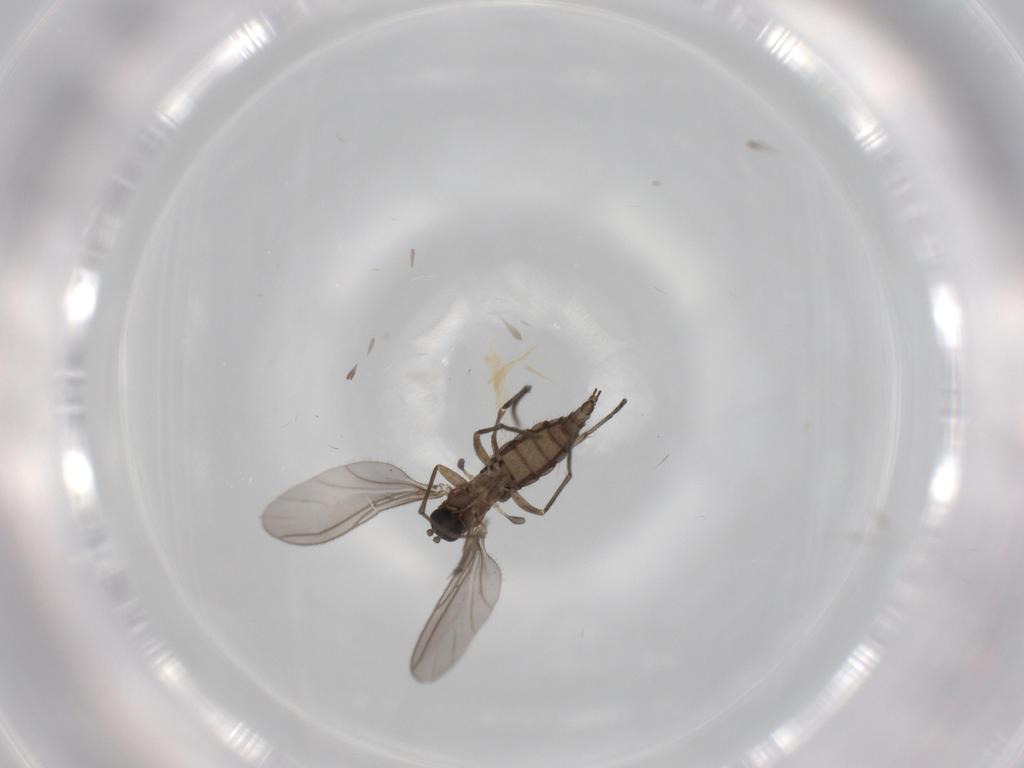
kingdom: Animalia
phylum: Arthropoda
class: Insecta
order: Diptera
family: Sciaridae
